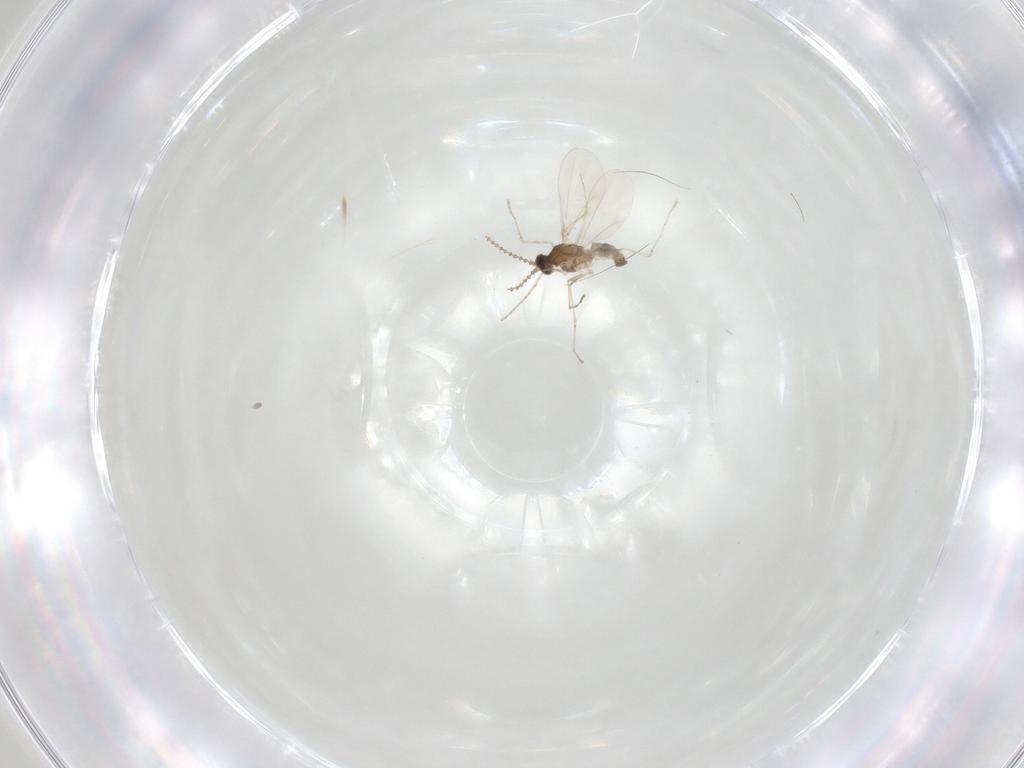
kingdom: Animalia
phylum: Arthropoda
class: Insecta
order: Diptera
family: Cecidomyiidae
